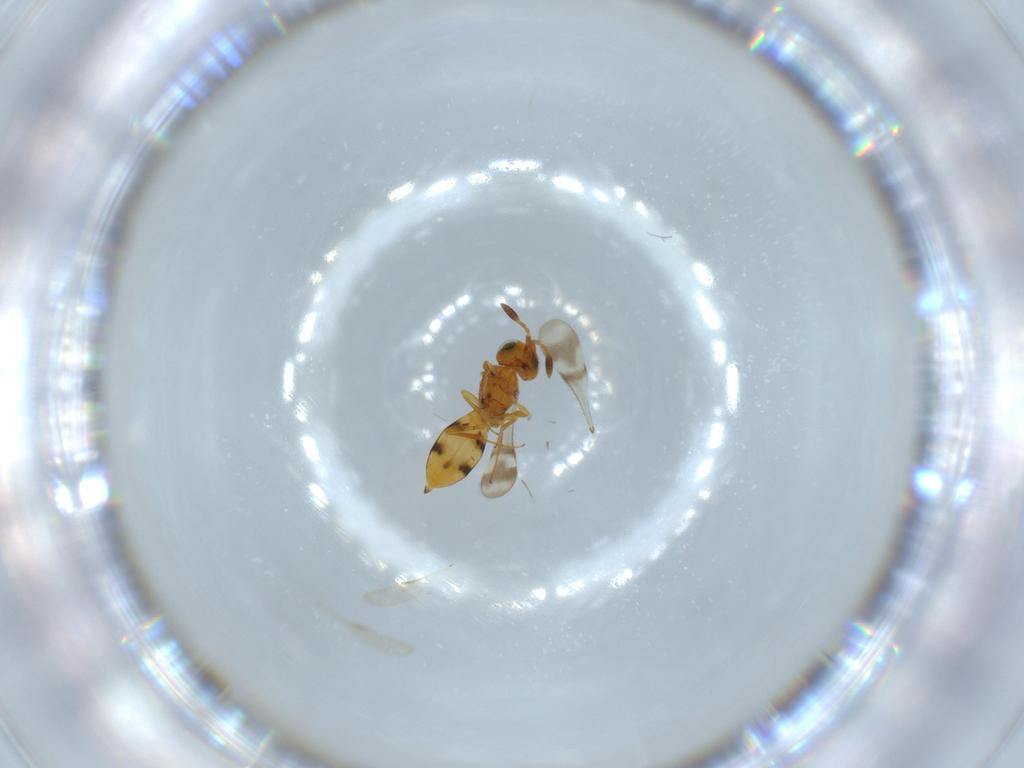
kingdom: Animalia
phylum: Arthropoda
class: Insecta
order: Hymenoptera
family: Scelionidae
